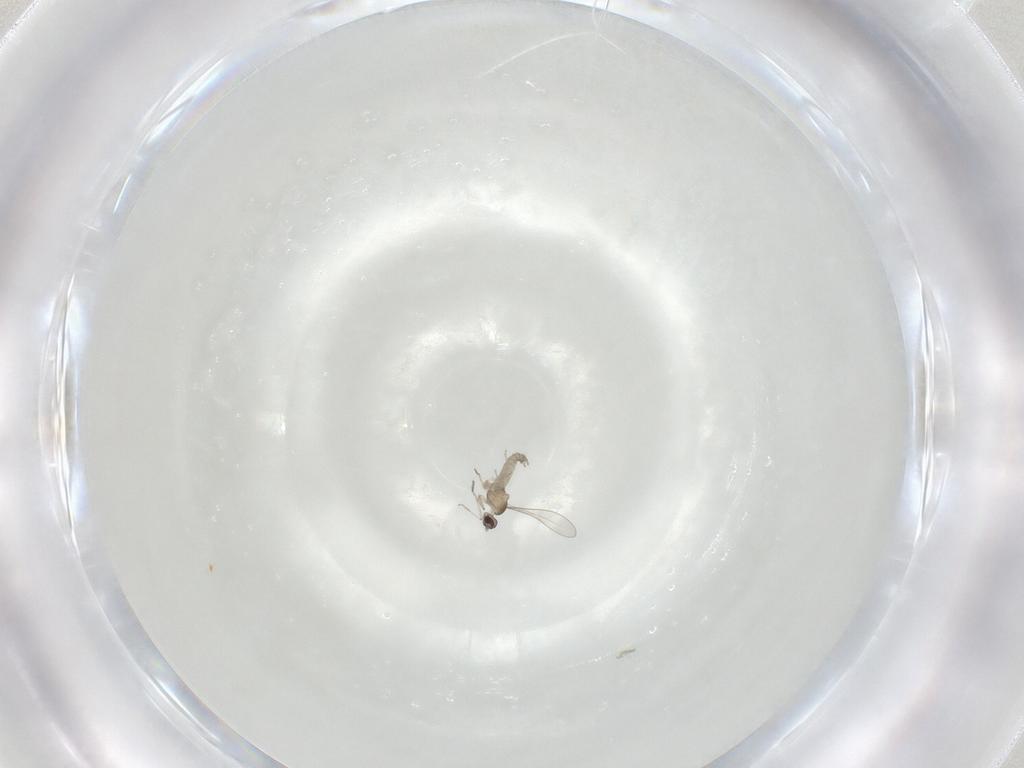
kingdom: Animalia
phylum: Arthropoda
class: Insecta
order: Diptera
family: Cecidomyiidae
